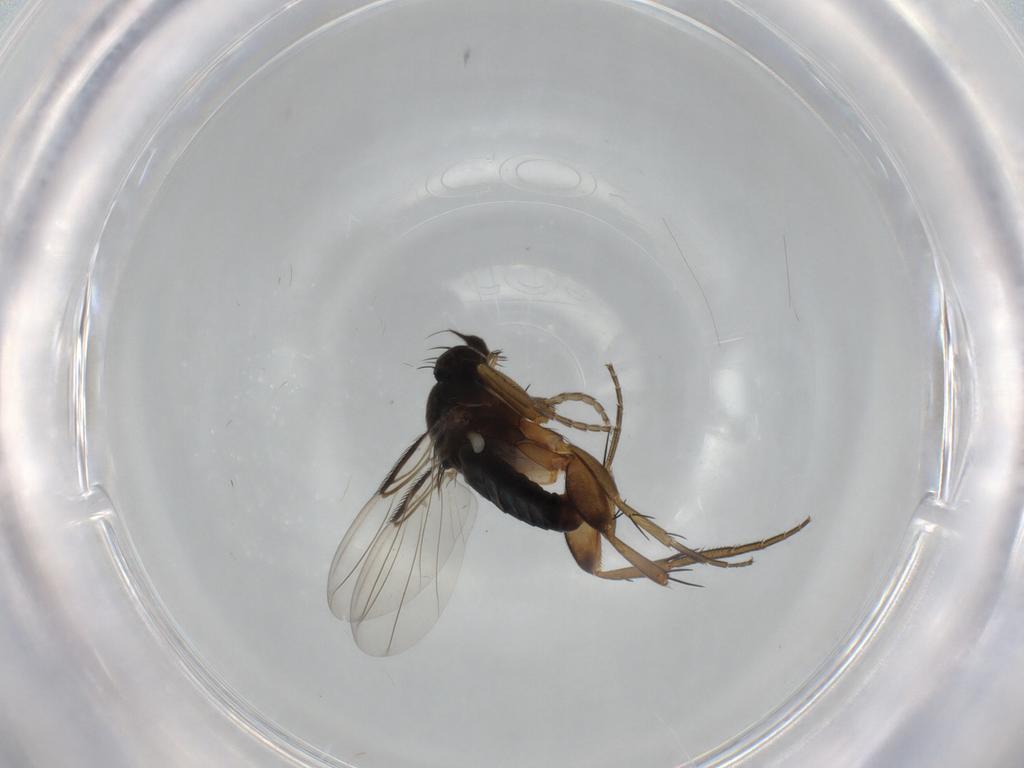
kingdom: Animalia
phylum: Arthropoda
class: Insecta
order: Diptera
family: Phoridae
